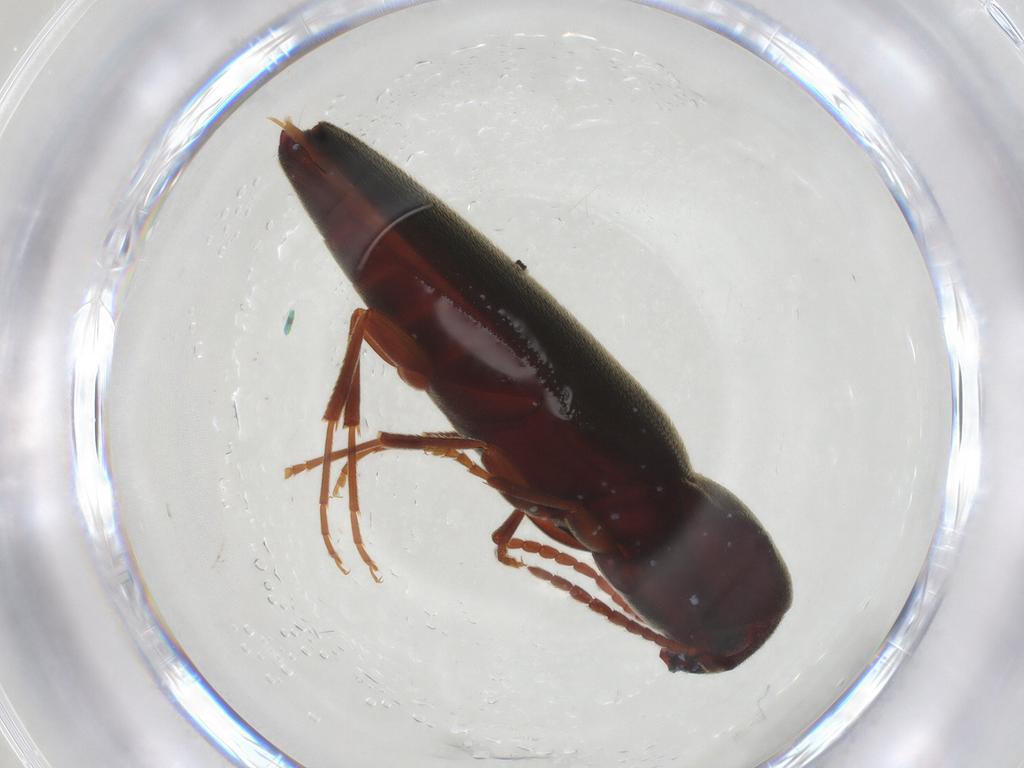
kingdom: Animalia
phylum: Arthropoda
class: Insecta
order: Coleoptera
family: Eucnemidae
